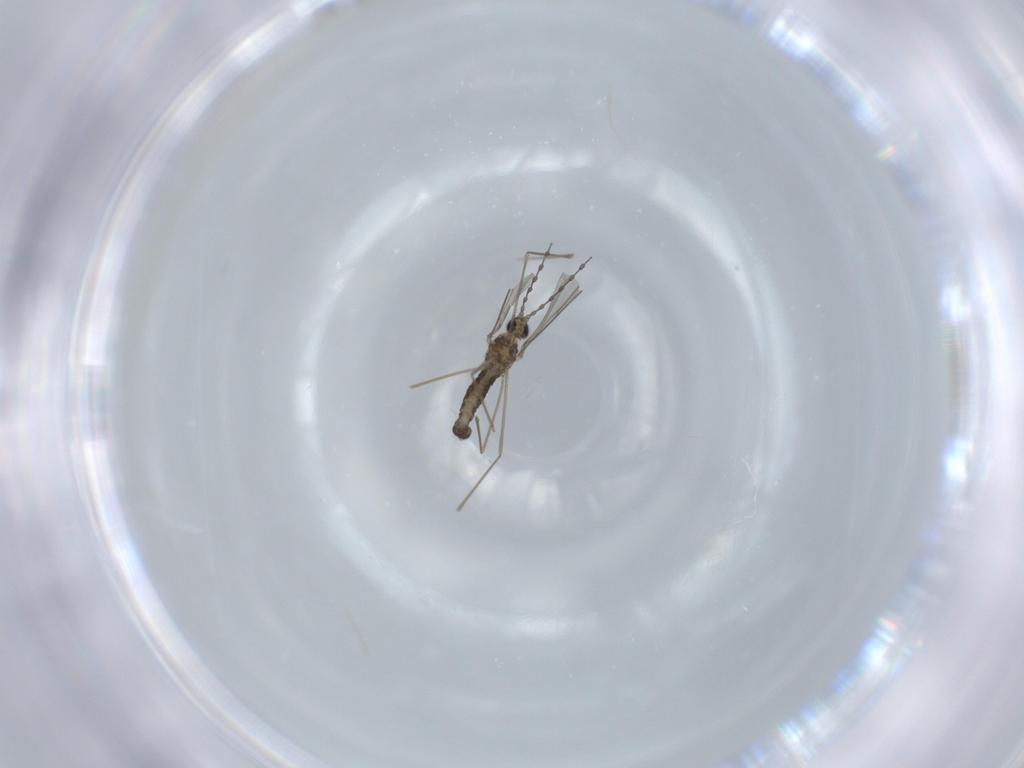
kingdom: Animalia
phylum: Arthropoda
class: Insecta
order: Diptera
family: Cecidomyiidae
